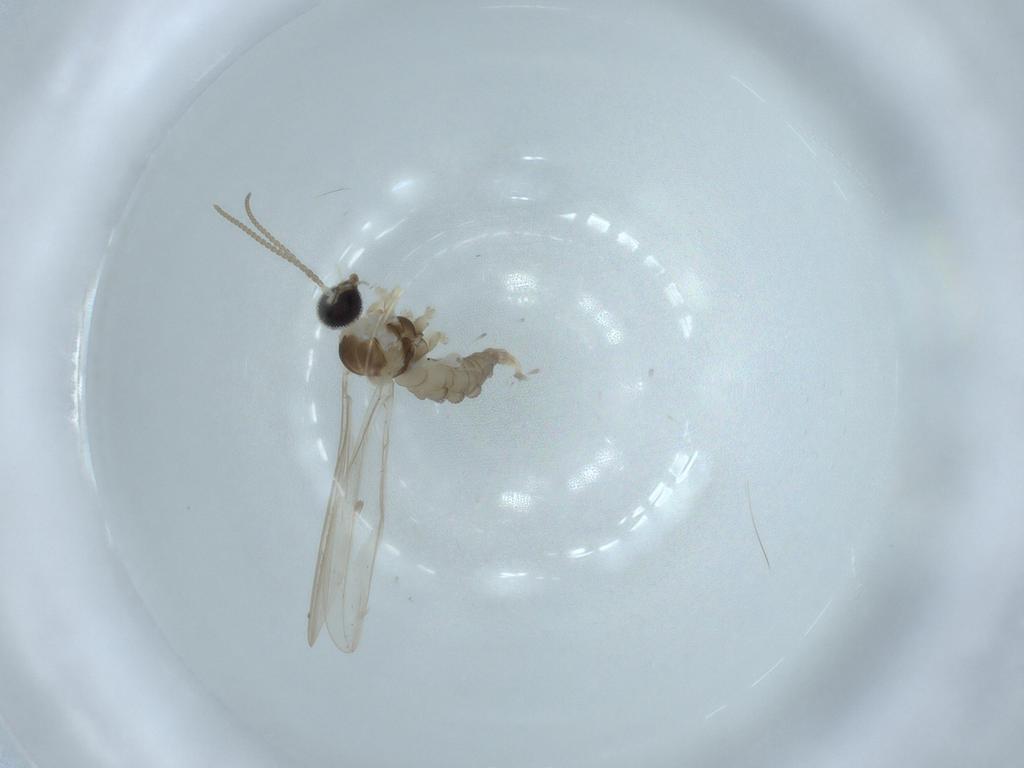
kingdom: Animalia
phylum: Arthropoda
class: Insecta
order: Diptera
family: Cecidomyiidae
